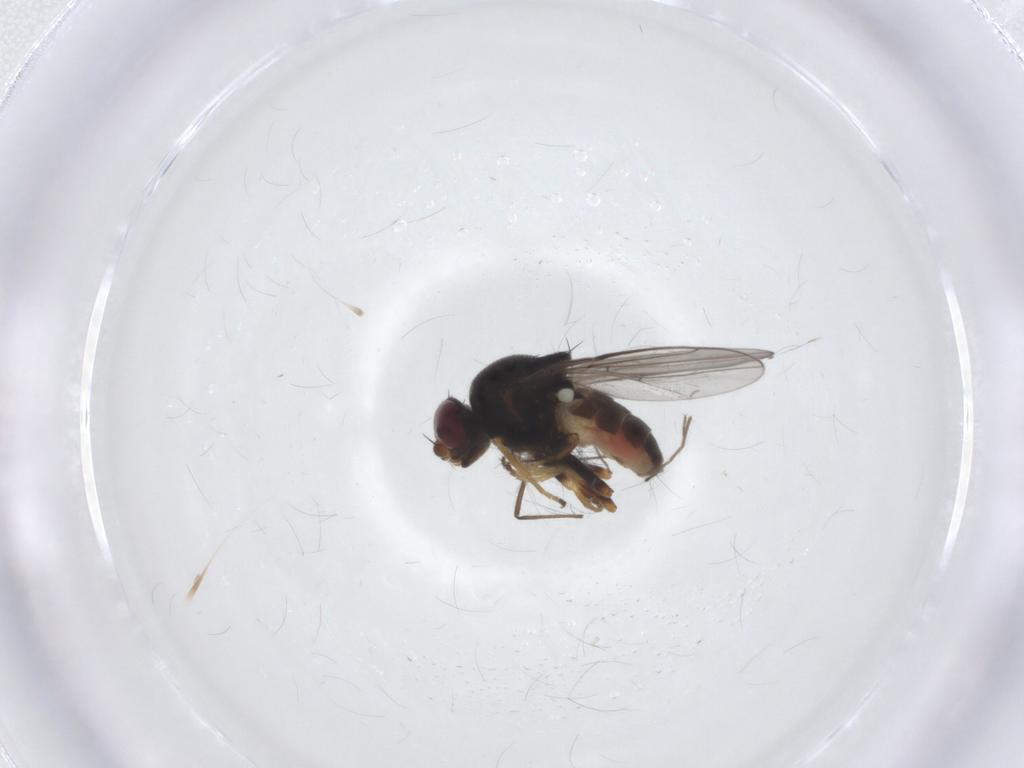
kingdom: Animalia
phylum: Arthropoda
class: Insecta
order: Diptera
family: Chloropidae
